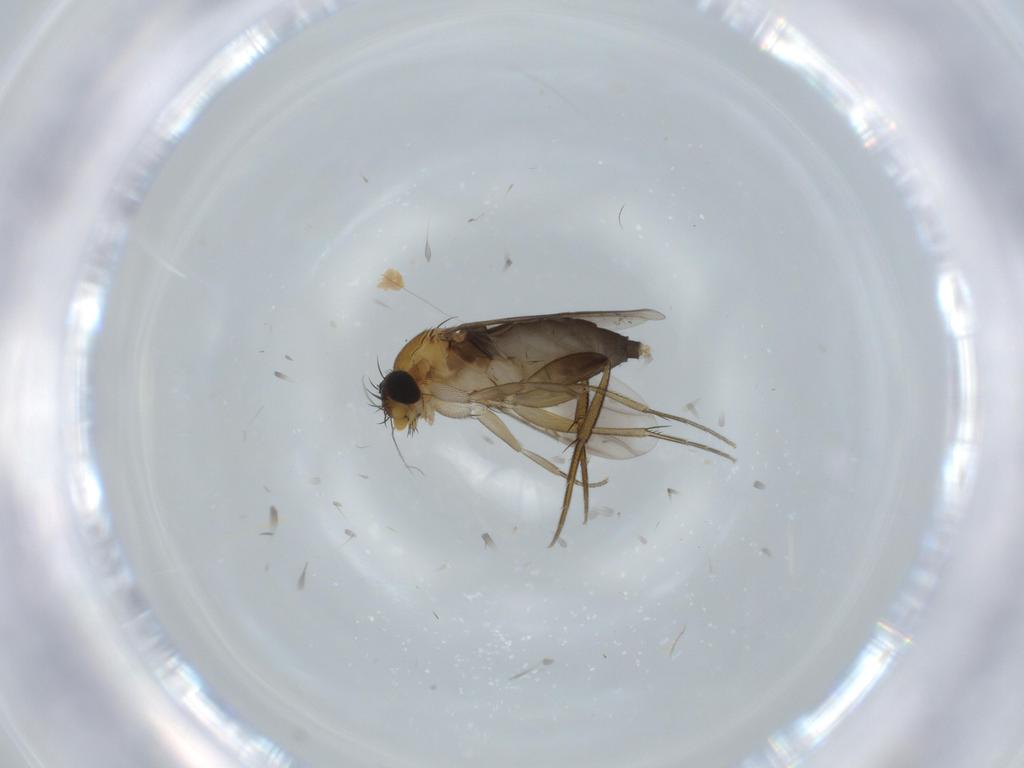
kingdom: Animalia
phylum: Arthropoda
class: Insecta
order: Diptera
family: Phoridae
